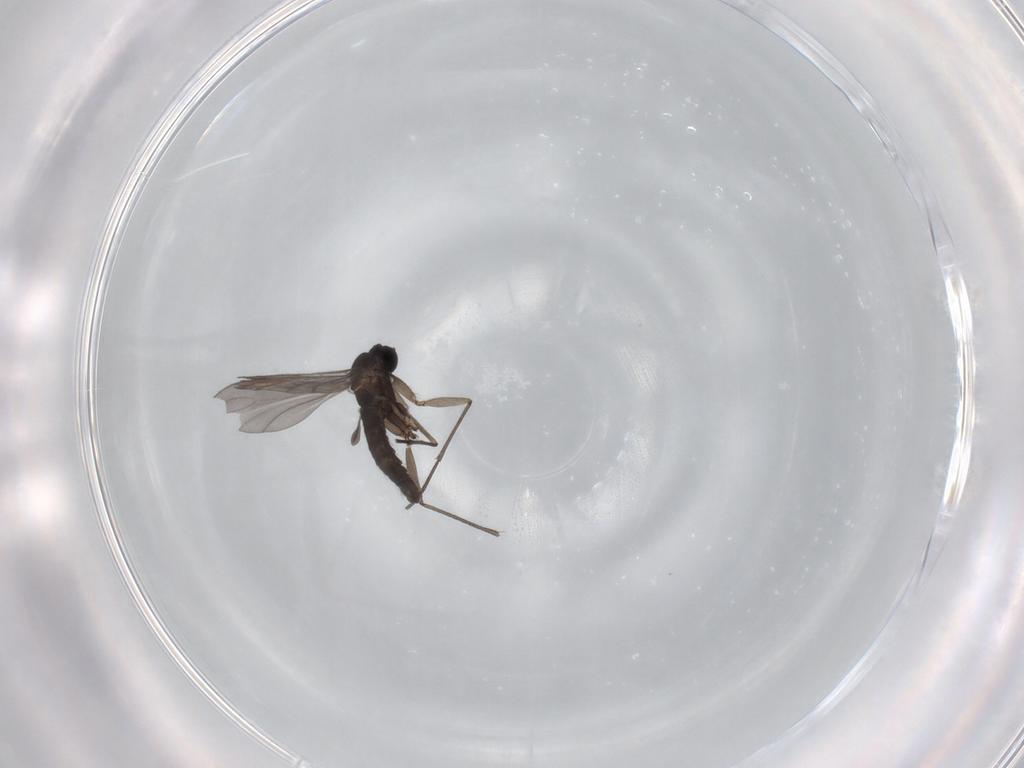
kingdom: Animalia
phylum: Arthropoda
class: Insecta
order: Diptera
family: Sciaridae
